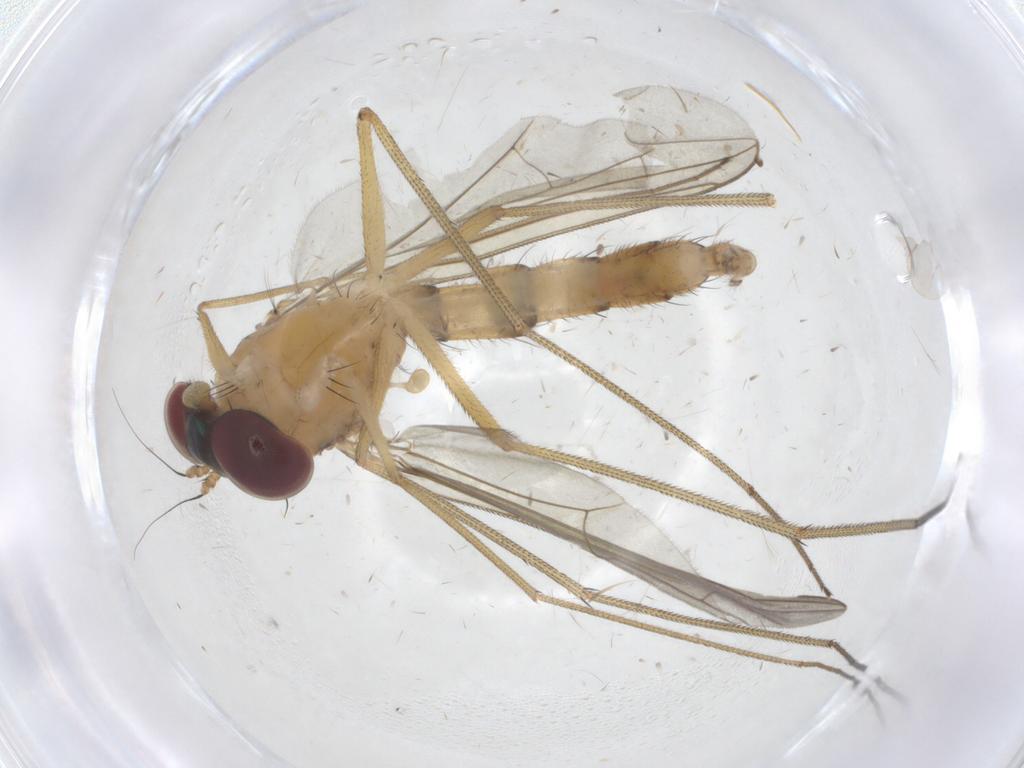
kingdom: Animalia
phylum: Arthropoda
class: Insecta
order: Diptera
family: Dolichopodidae
